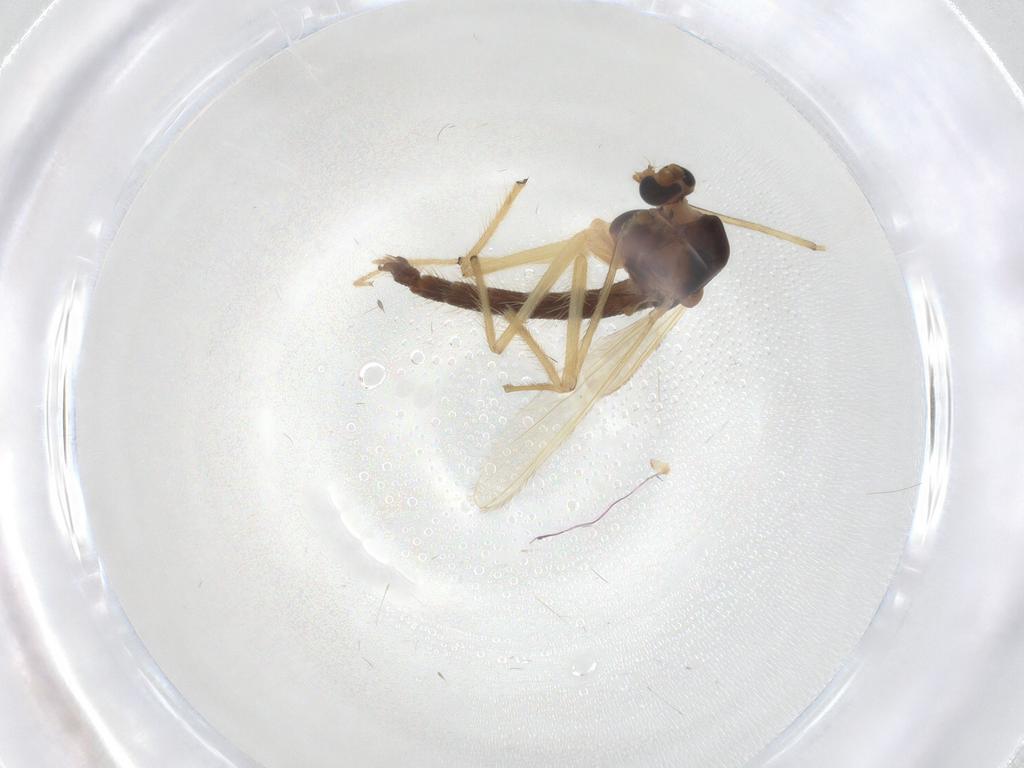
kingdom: Animalia
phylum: Arthropoda
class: Insecta
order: Diptera
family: Chironomidae
